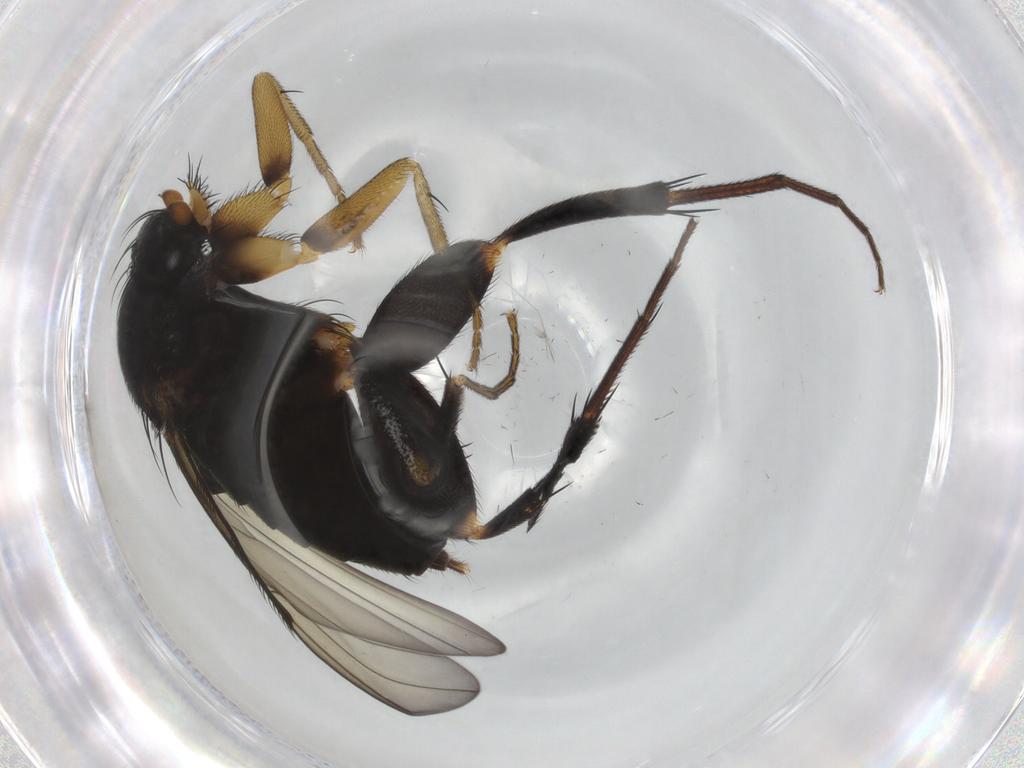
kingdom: Animalia
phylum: Arthropoda
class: Insecta
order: Diptera
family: Phoridae
